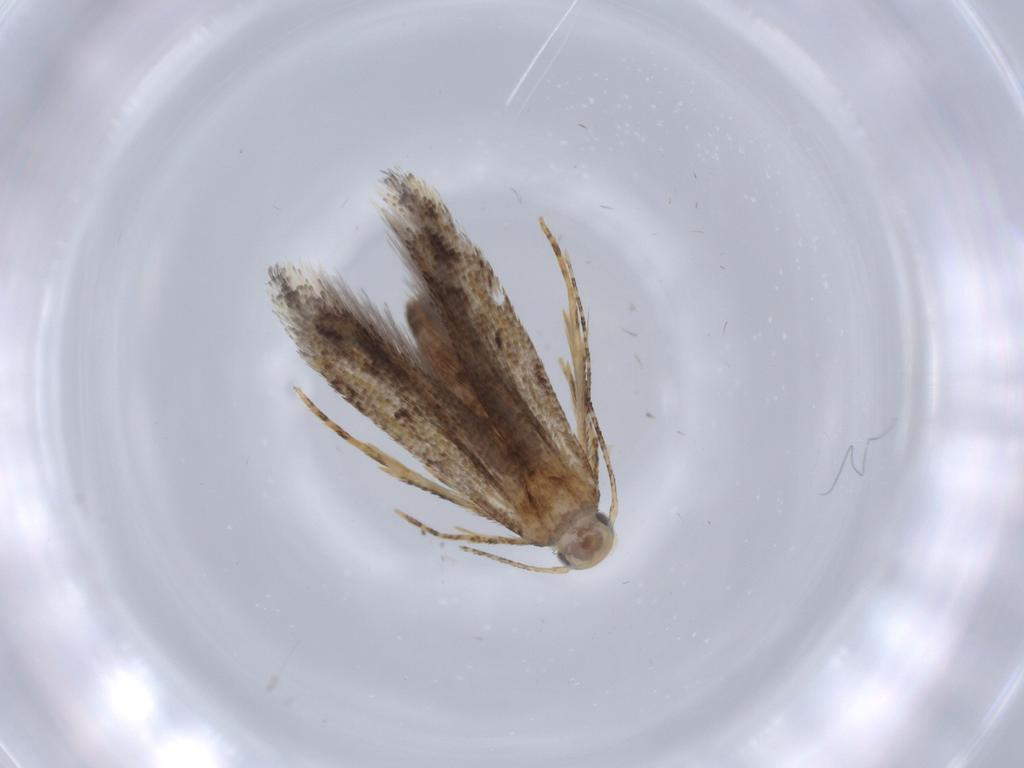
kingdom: Animalia
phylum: Arthropoda
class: Insecta
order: Lepidoptera
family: Gelechiidae
